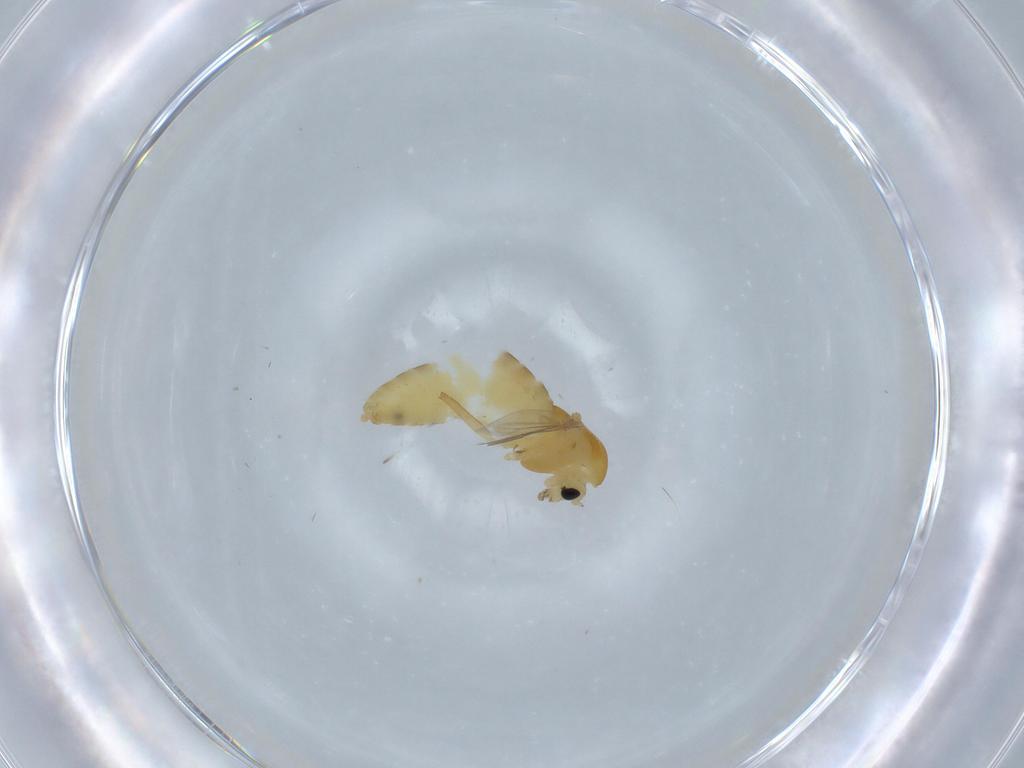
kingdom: Animalia
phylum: Arthropoda
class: Insecta
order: Diptera
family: Chironomidae
